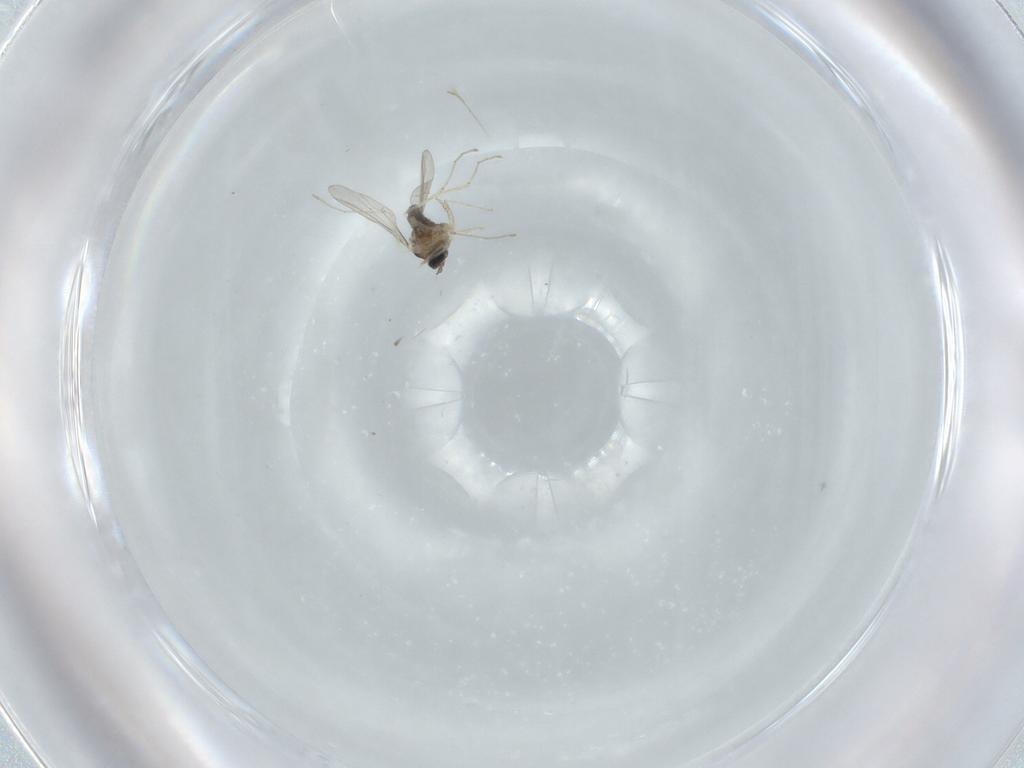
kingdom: Animalia
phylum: Arthropoda
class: Insecta
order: Diptera
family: Cecidomyiidae
